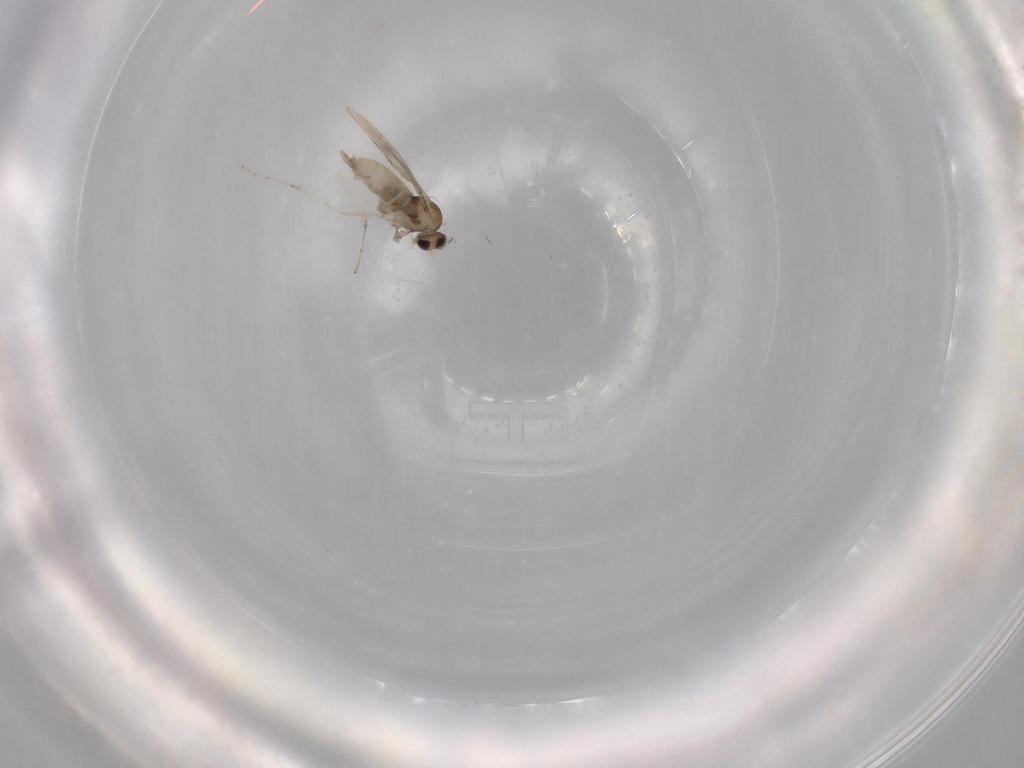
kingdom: Animalia
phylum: Arthropoda
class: Insecta
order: Diptera
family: Cecidomyiidae
